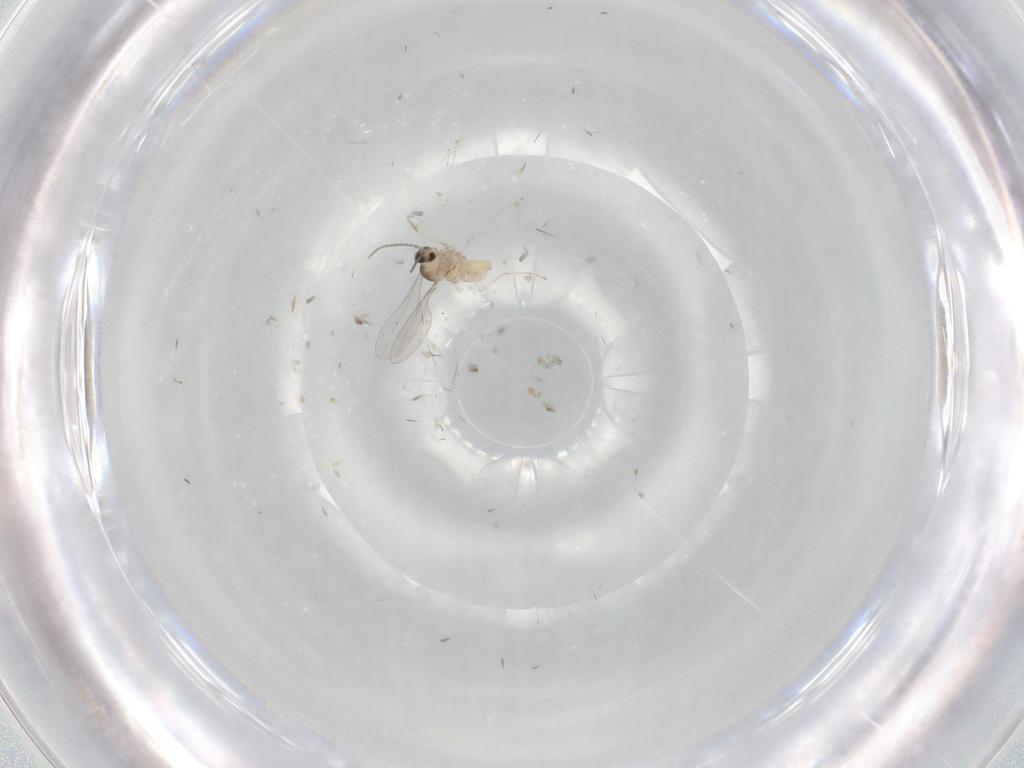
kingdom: Animalia
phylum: Arthropoda
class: Insecta
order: Diptera
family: Cecidomyiidae
